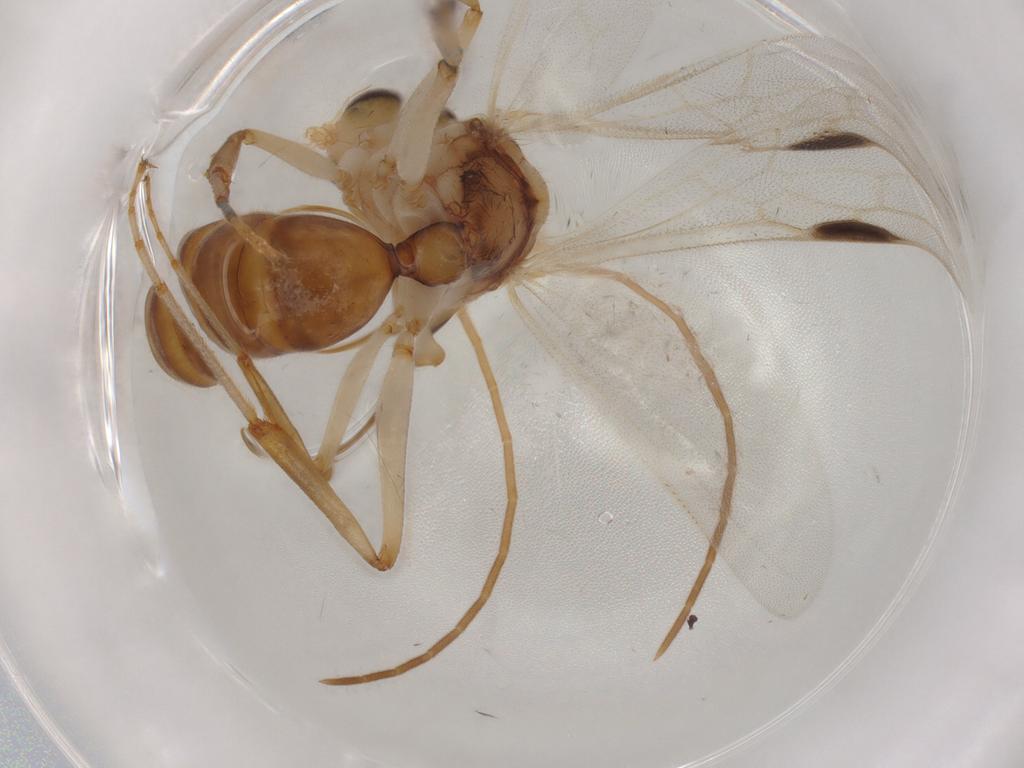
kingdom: Animalia
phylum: Arthropoda
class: Insecta
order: Hymenoptera
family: Formicidae
